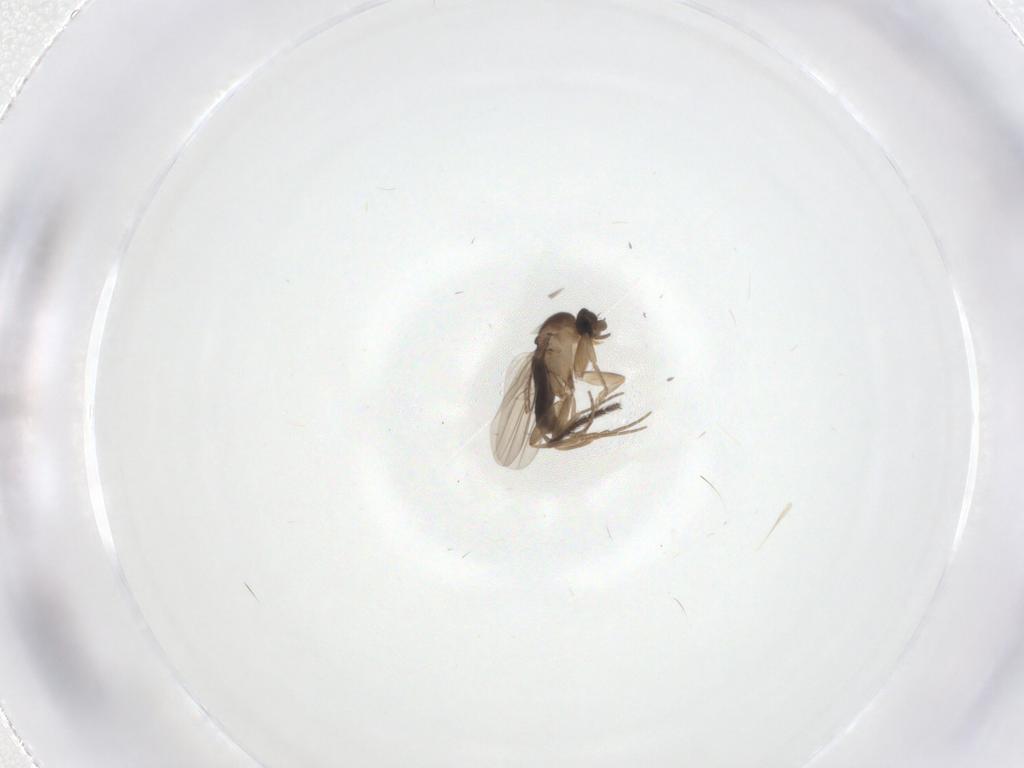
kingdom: Animalia
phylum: Arthropoda
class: Insecta
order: Diptera
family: Phoridae
